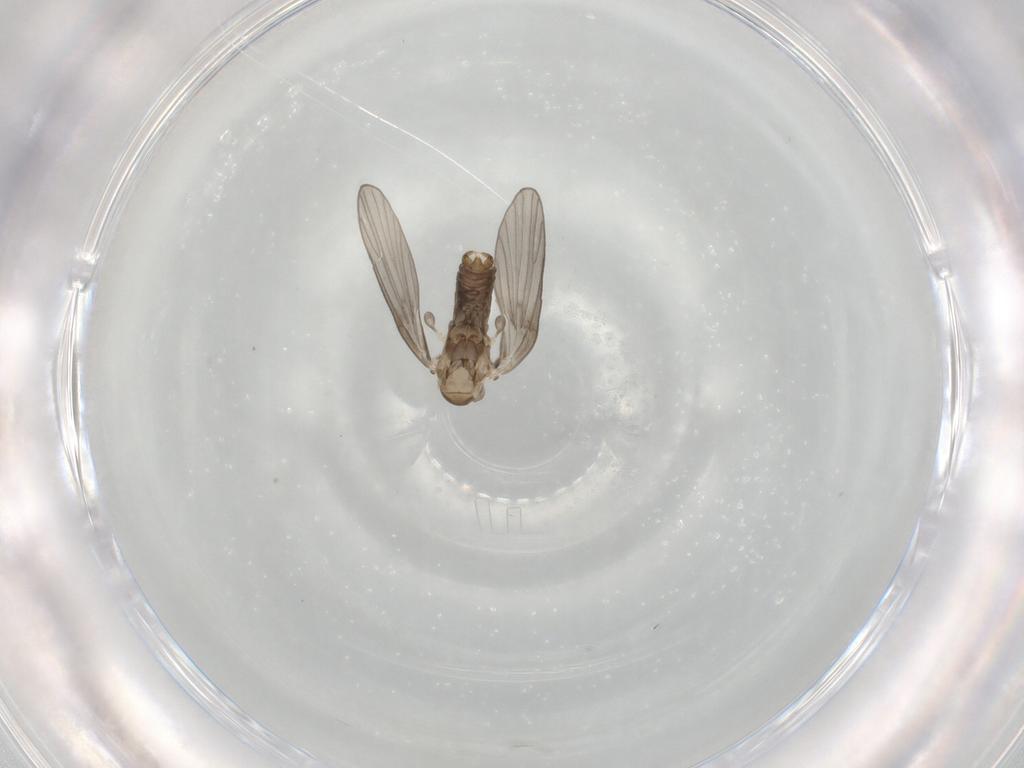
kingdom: Animalia
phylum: Arthropoda
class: Insecta
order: Diptera
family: Psychodidae
